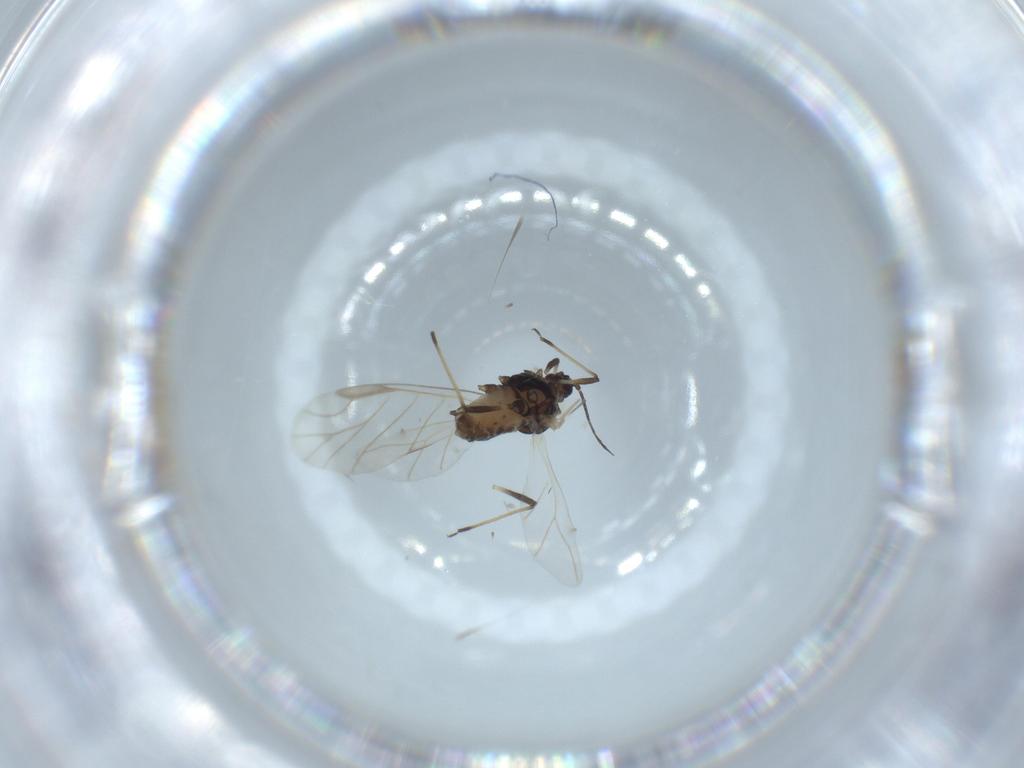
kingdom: Animalia
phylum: Arthropoda
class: Insecta
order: Hemiptera
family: Aphididae
